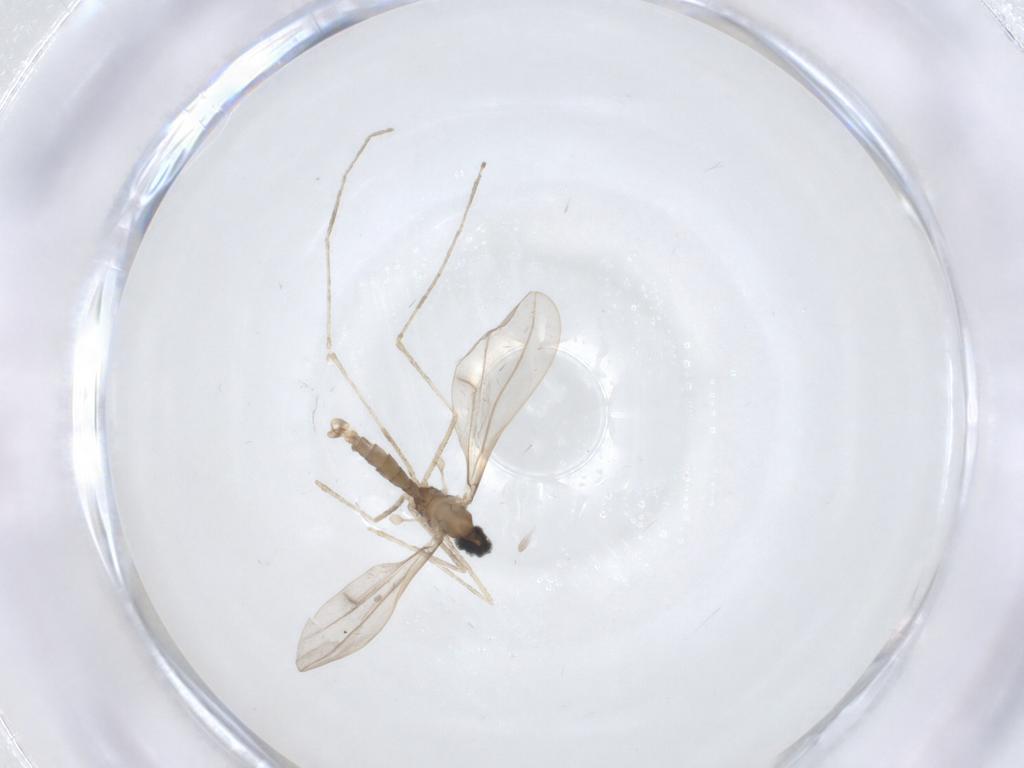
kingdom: Animalia
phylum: Arthropoda
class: Insecta
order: Diptera
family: Cecidomyiidae
